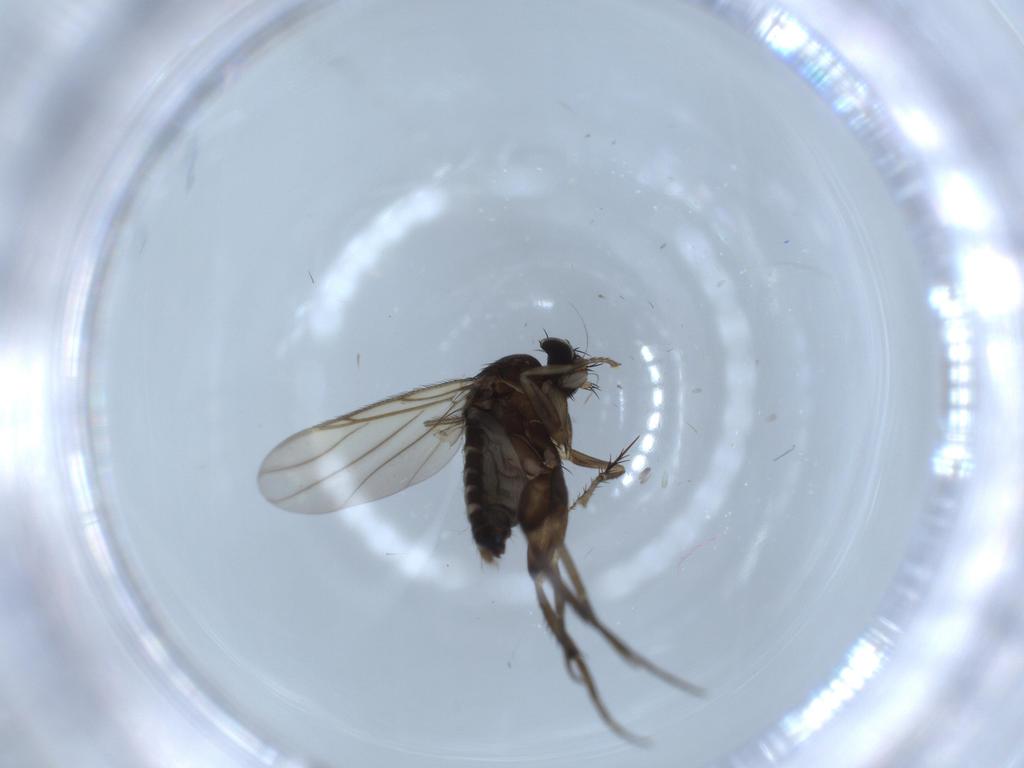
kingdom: Animalia
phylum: Arthropoda
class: Insecta
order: Diptera
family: Phoridae
